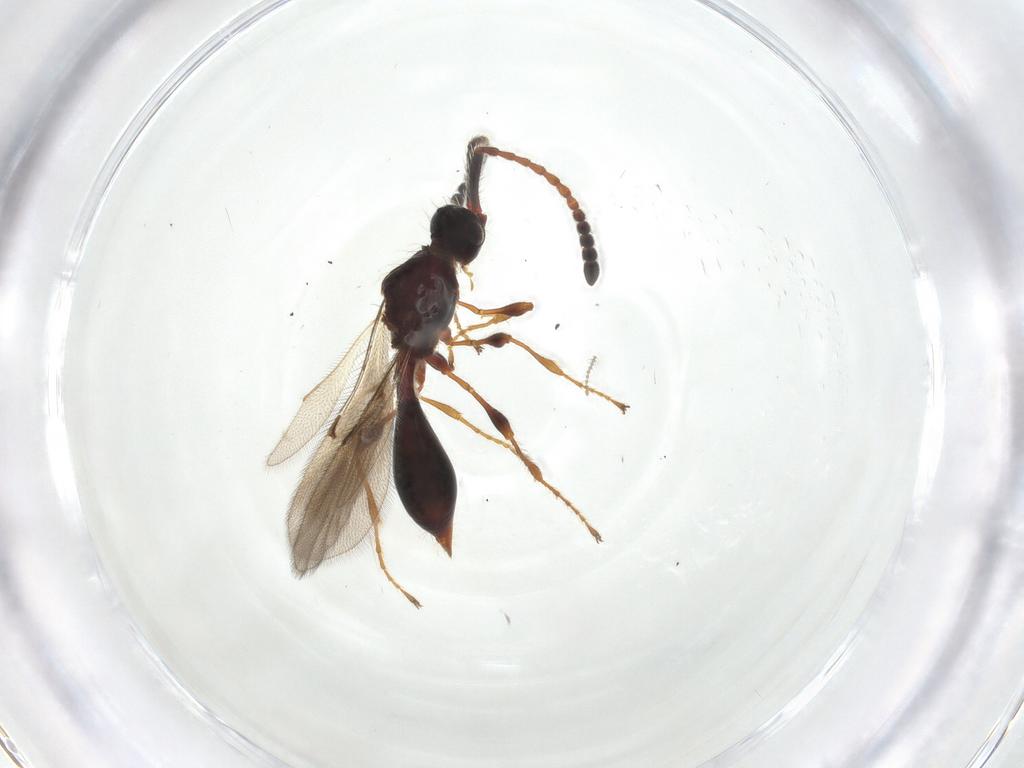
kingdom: Animalia
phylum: Arthropoda
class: Insecta
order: Hymenoptera
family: Diapriidae
